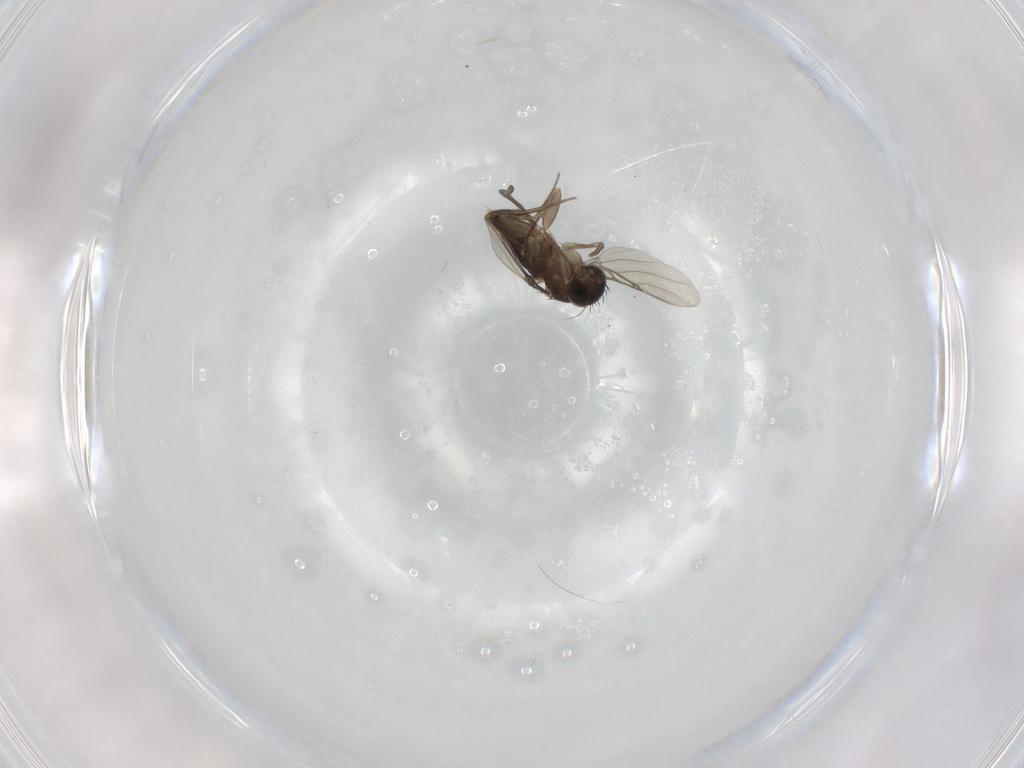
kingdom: Animalia
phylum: Arthropoda
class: Insecta
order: Diptera
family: Phoridae
